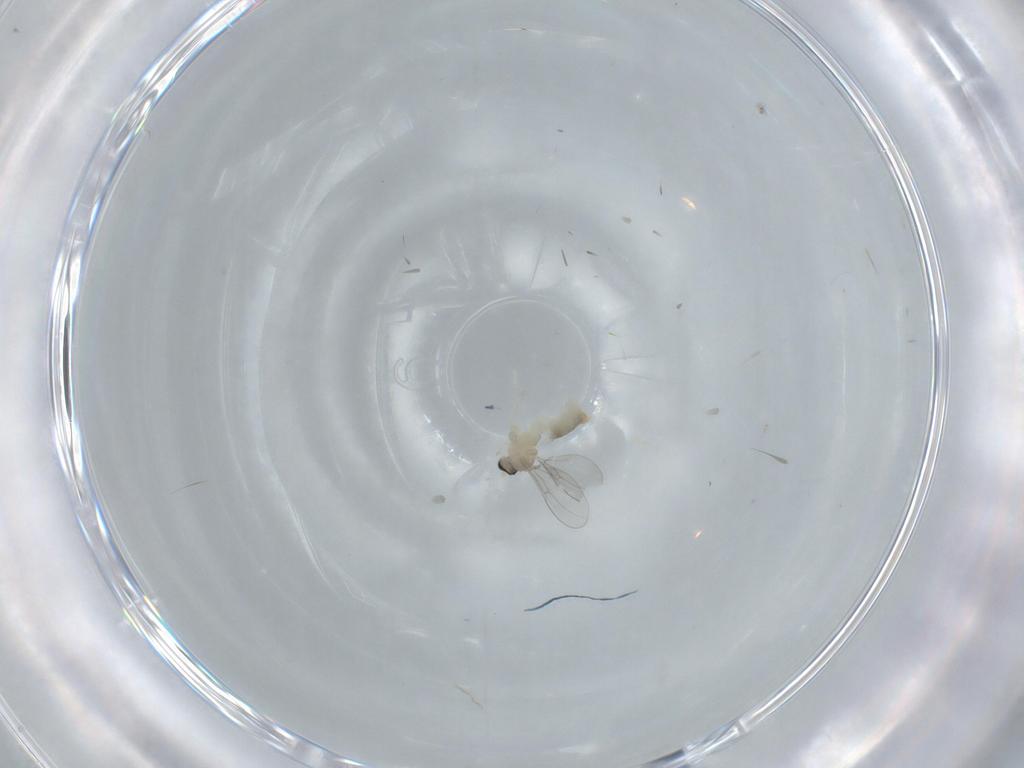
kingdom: Animalia
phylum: Arthropoda
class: Insecta
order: Diptera
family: Cecidomyiidae
